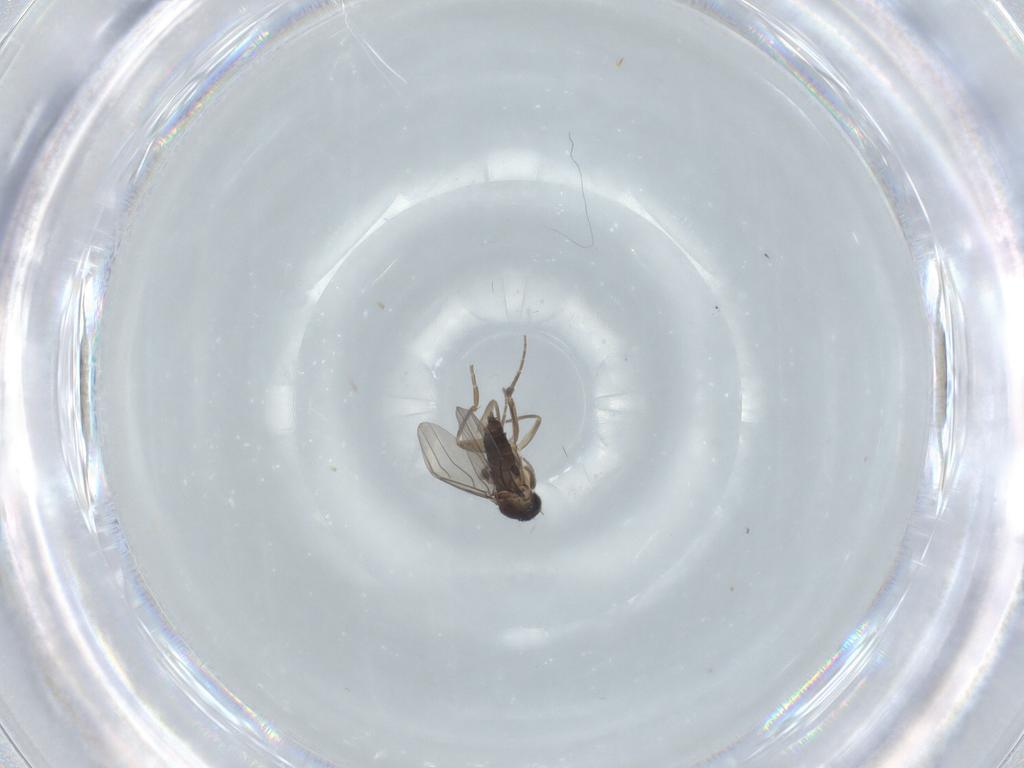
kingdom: Animalia
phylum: Arthropoda
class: Insecta
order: Diptera
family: Phoridae
